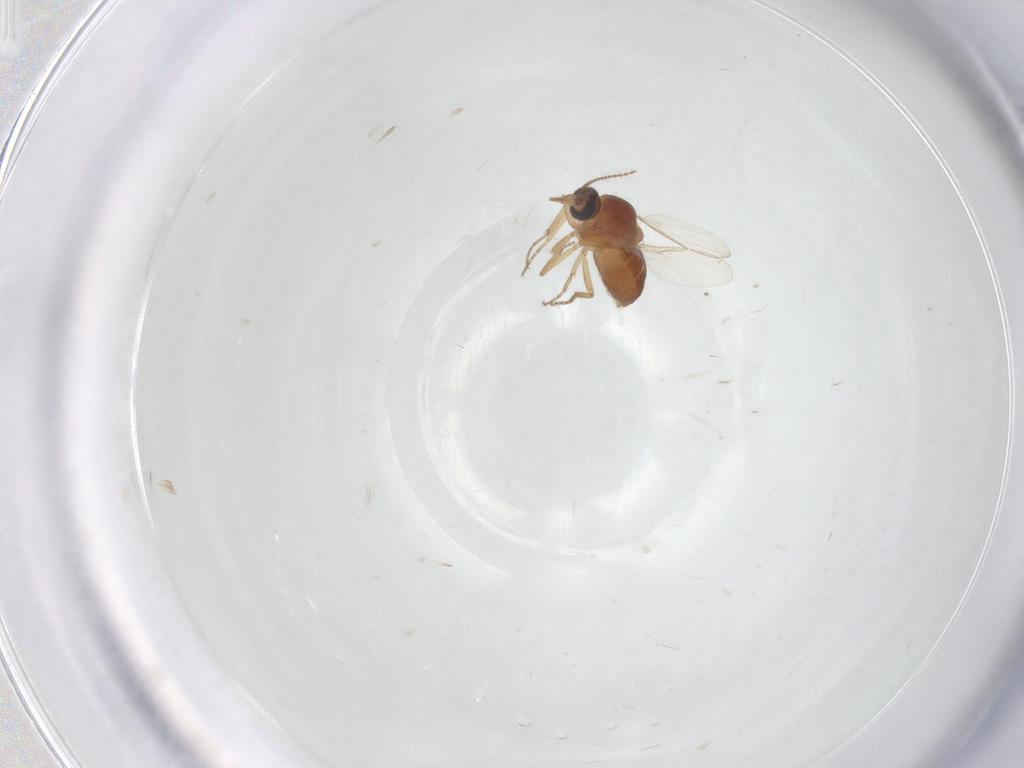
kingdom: Animalia
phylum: Arthropoda
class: Insecta
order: Diptera
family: Ceratopogonidae
